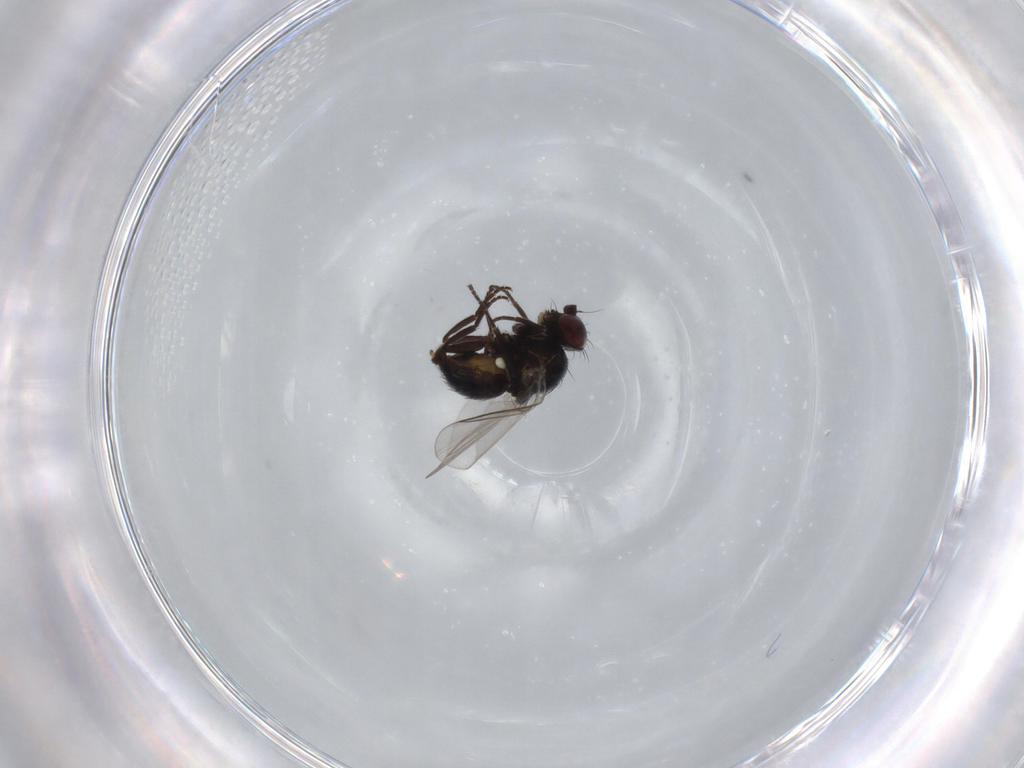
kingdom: Animalia
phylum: Arthropoda
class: Insecta
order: Diptera
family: Agromyzidae
